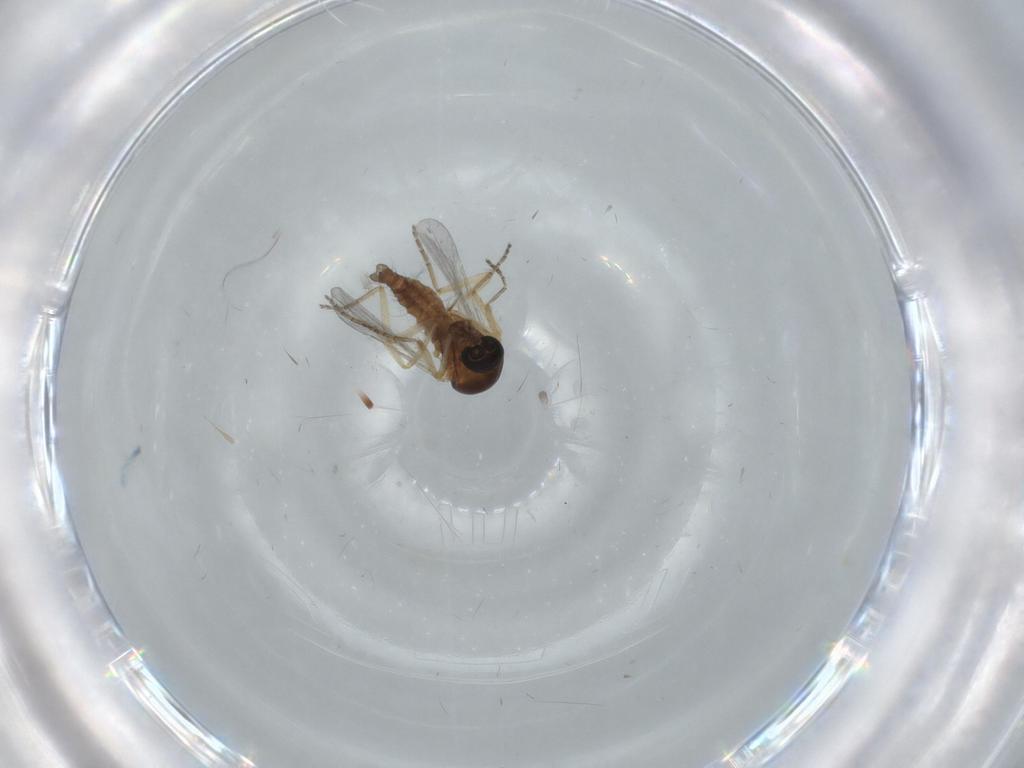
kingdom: Animalia
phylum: Arthropoda
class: Insecta
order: Diptera
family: Ceratopogonidae
